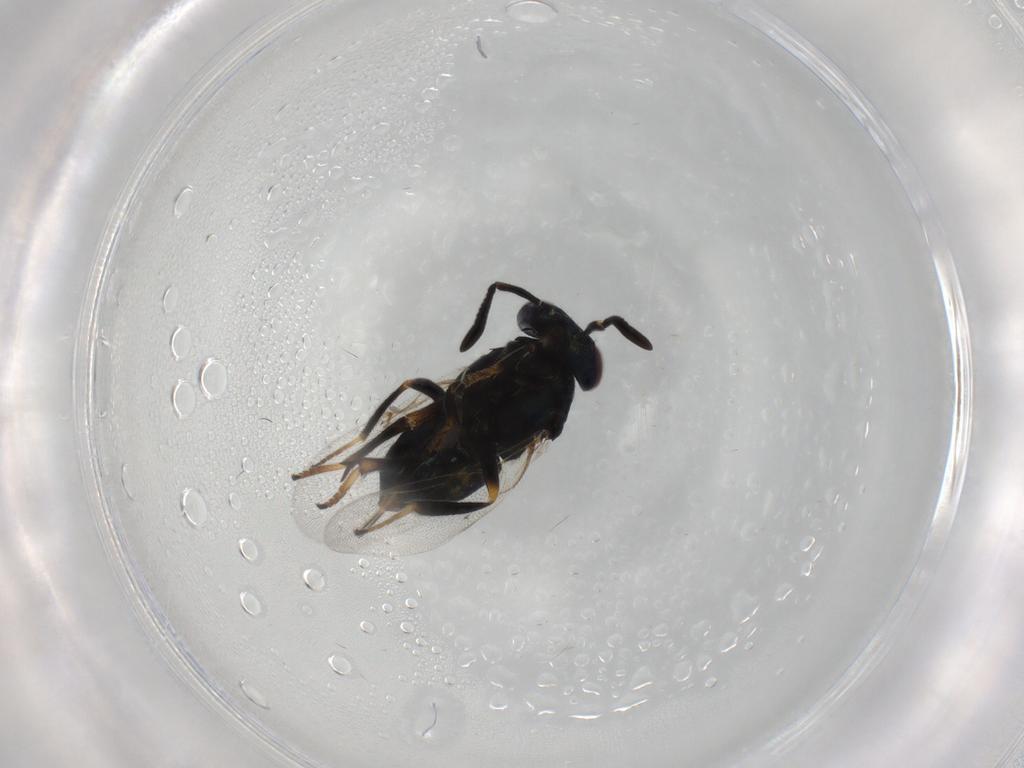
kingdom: Animalia
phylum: Arthropoda
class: Insecta
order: Hymenoptera
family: Encyrtidae
